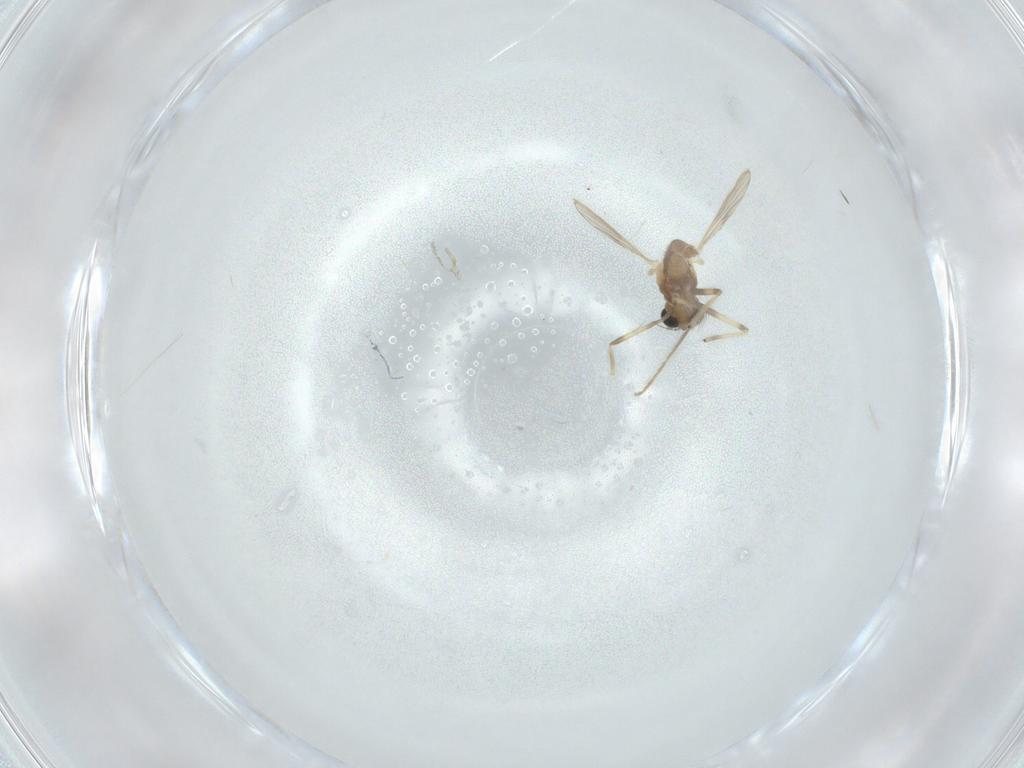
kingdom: Animalia
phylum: Arthropoda
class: Insecta
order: Diptera
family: Chironomidae
